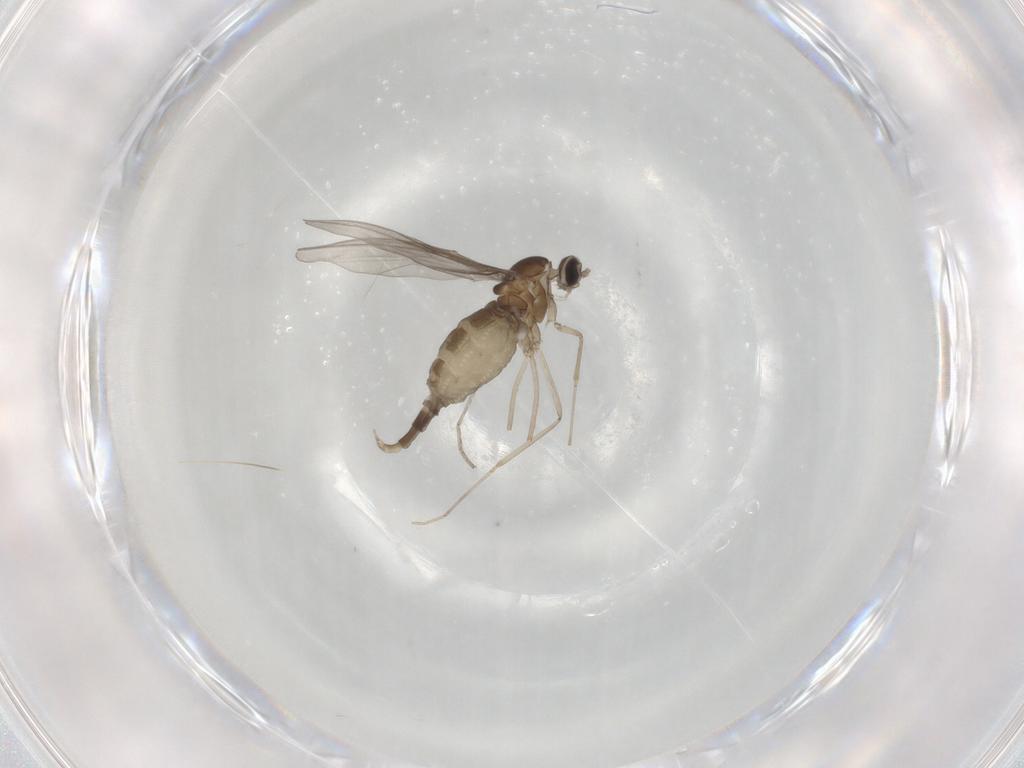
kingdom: Animalia
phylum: Arthropoda
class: Insecta
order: Diptera
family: Cecidomyiidae
